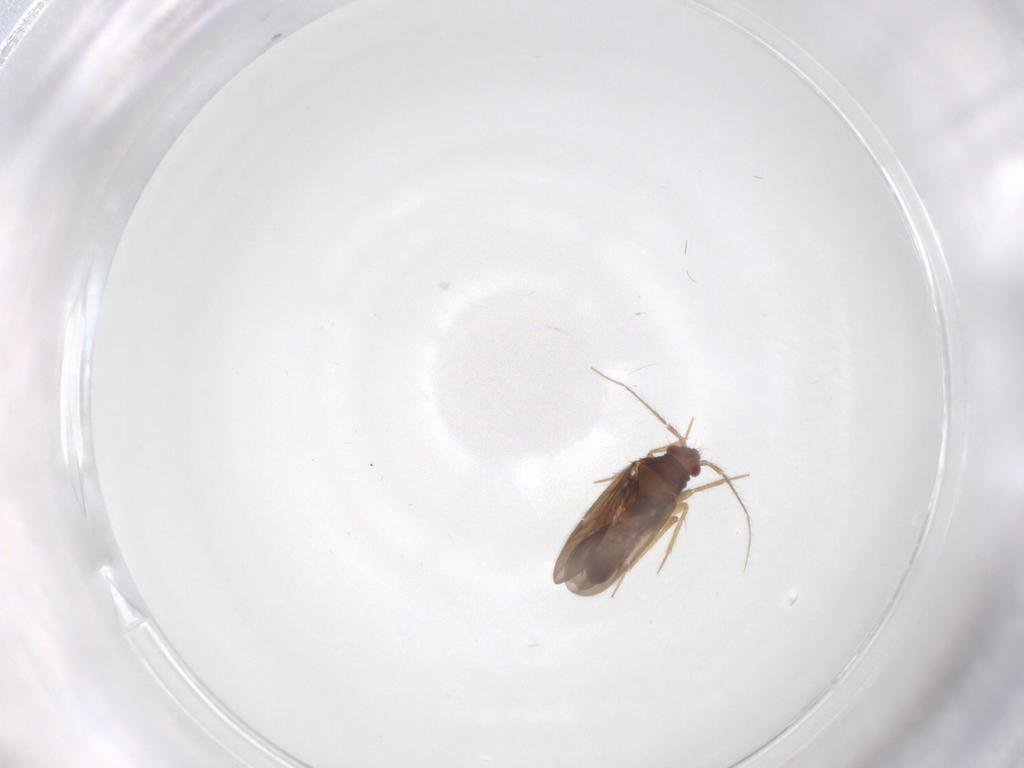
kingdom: Animalia
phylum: Arthropoda
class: Insecta
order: Hemiptera
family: Ceratocombidae
